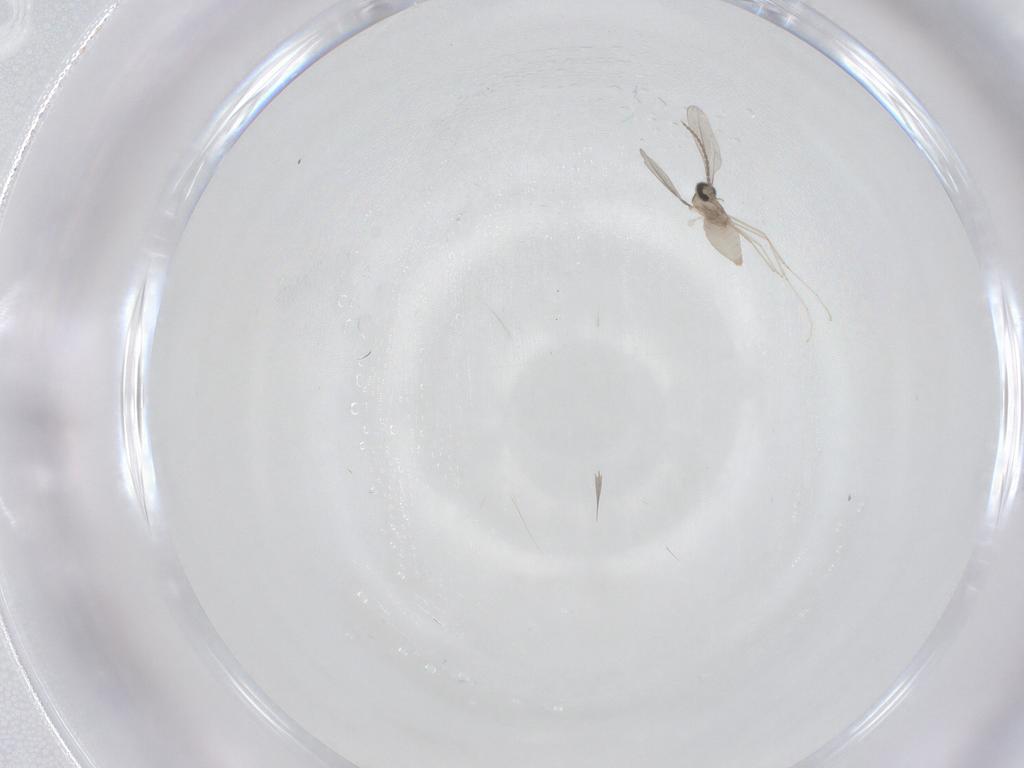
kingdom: Animalia
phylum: Arthropoda
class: Insecta
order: Diptera
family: Cecidomyiidae
